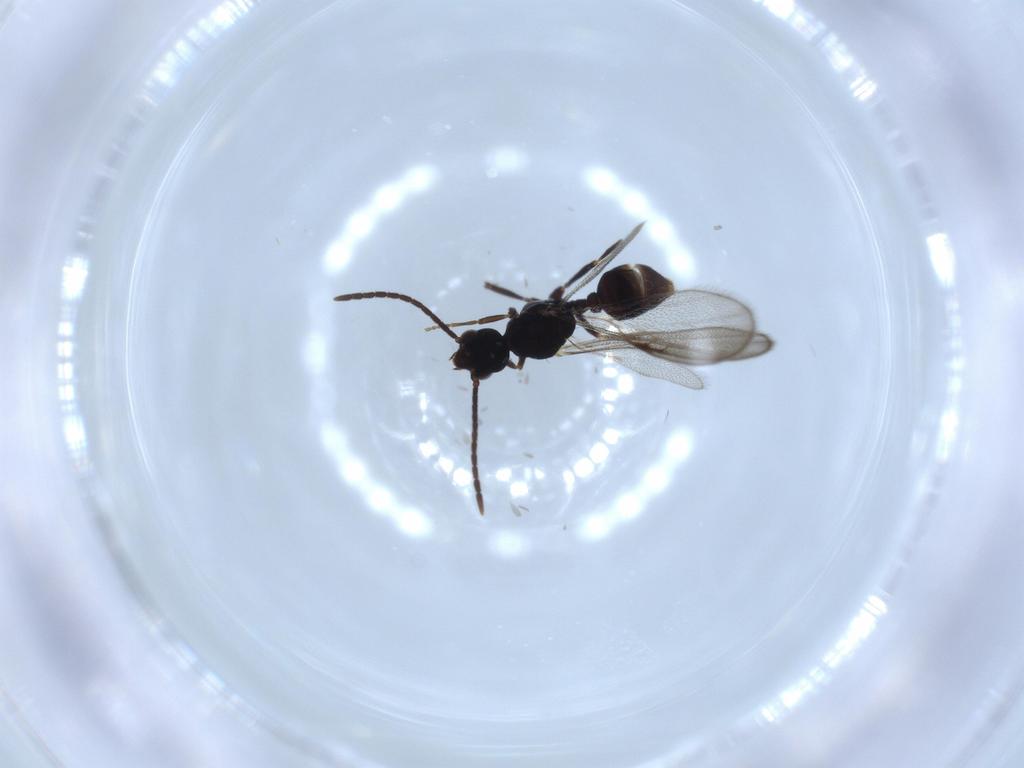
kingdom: Animalia
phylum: Arthropoda
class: Insecta
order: Hymenoptera
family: Formicidae
